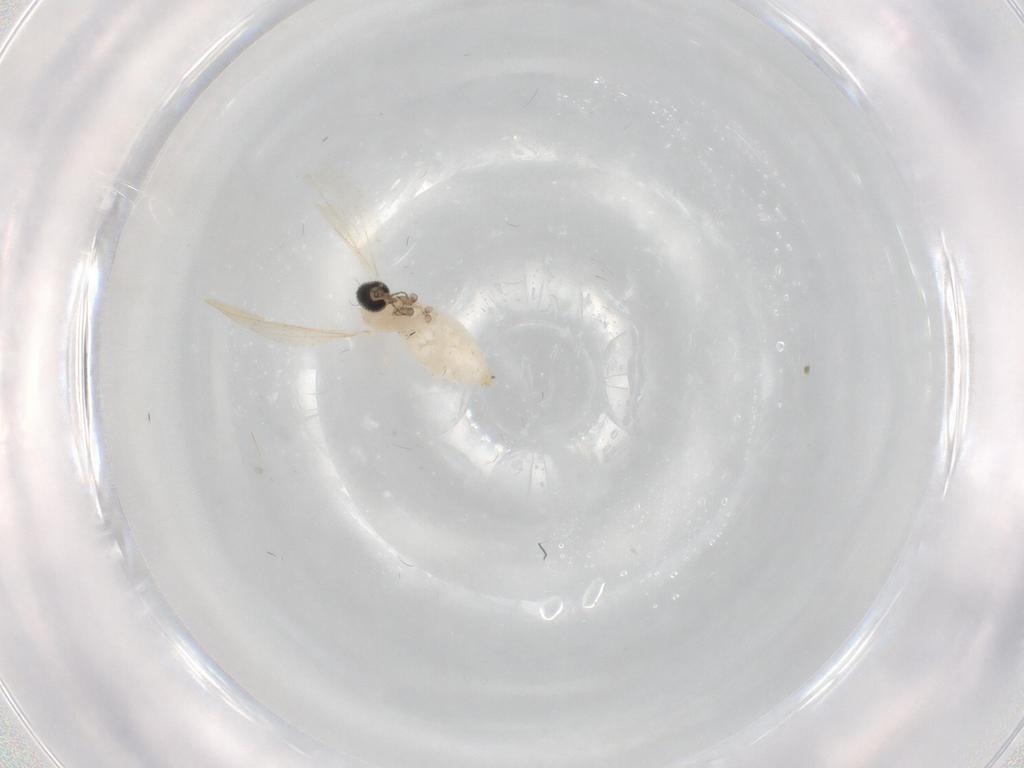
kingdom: Animalia
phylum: Arthropoda
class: Insecta
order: Diptera
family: Cecidomyiidae
